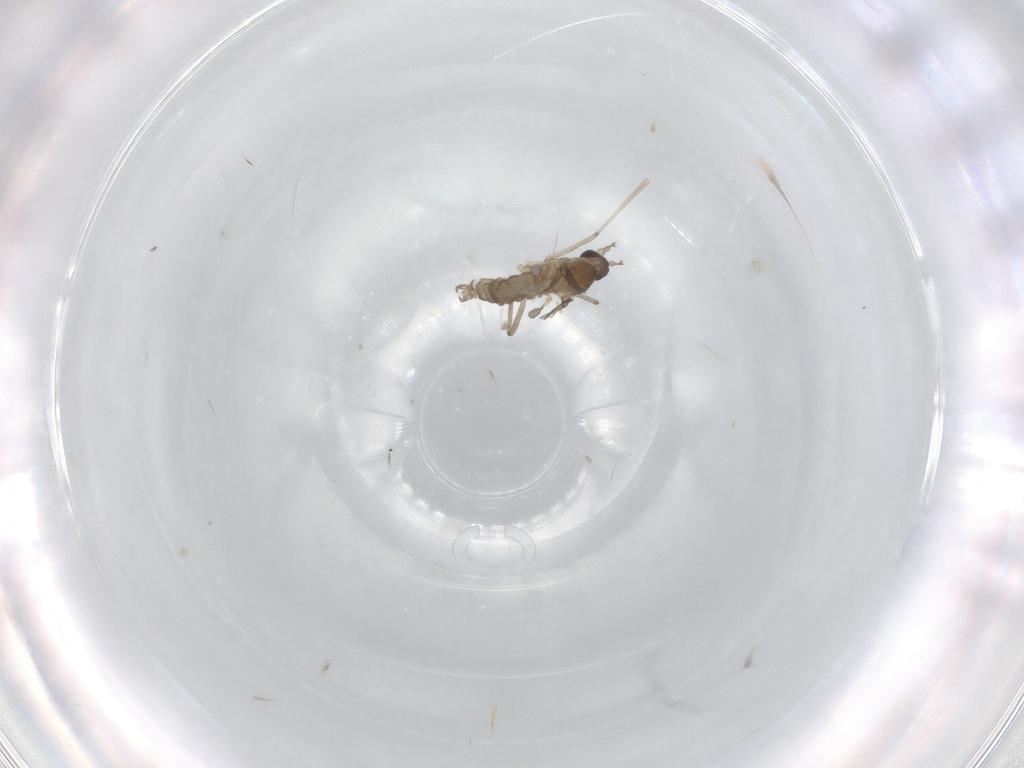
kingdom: Animalia
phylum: Arthropoda
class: Insecta
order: Diptera
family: Cecidomyiidae
